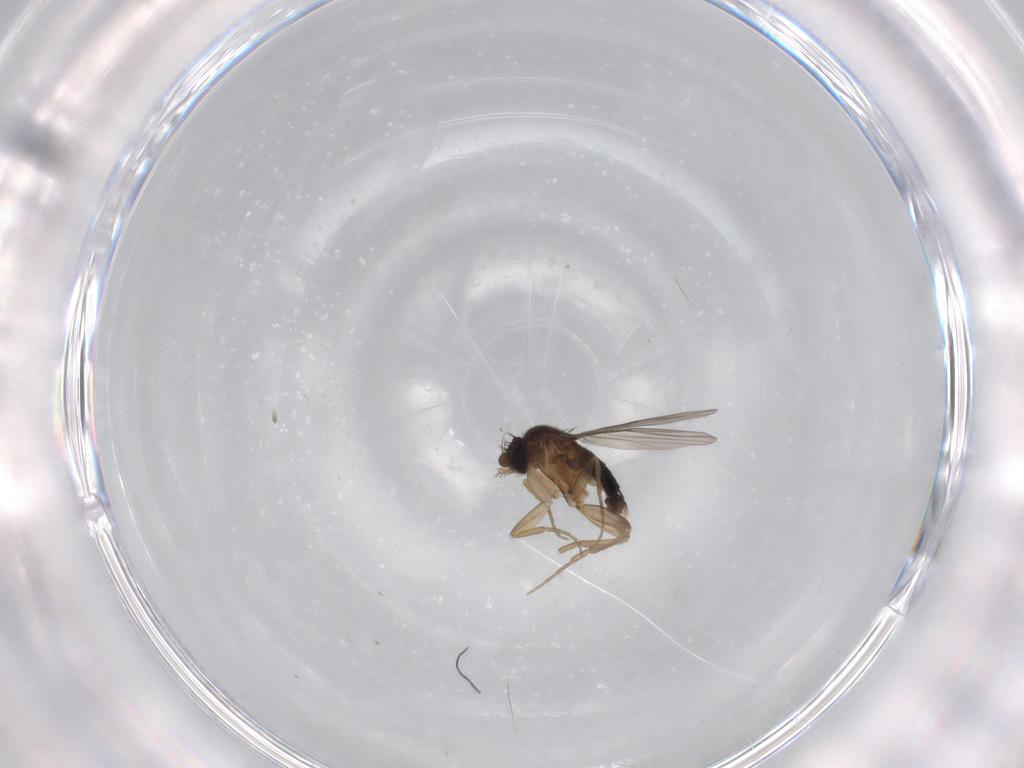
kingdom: Animalia
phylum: Arthropoda
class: Insecta
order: Diptera
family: Phoridae
